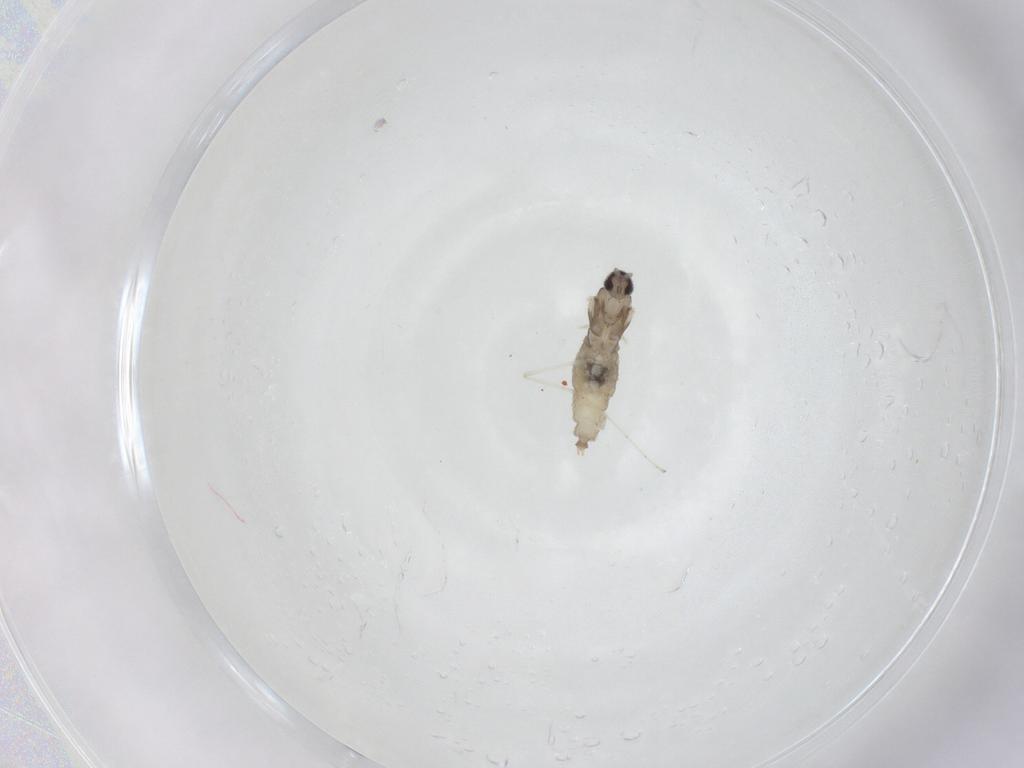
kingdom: Animalia
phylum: Arthropoda
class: Insecta
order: Diptera
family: Cecidomyiidae
